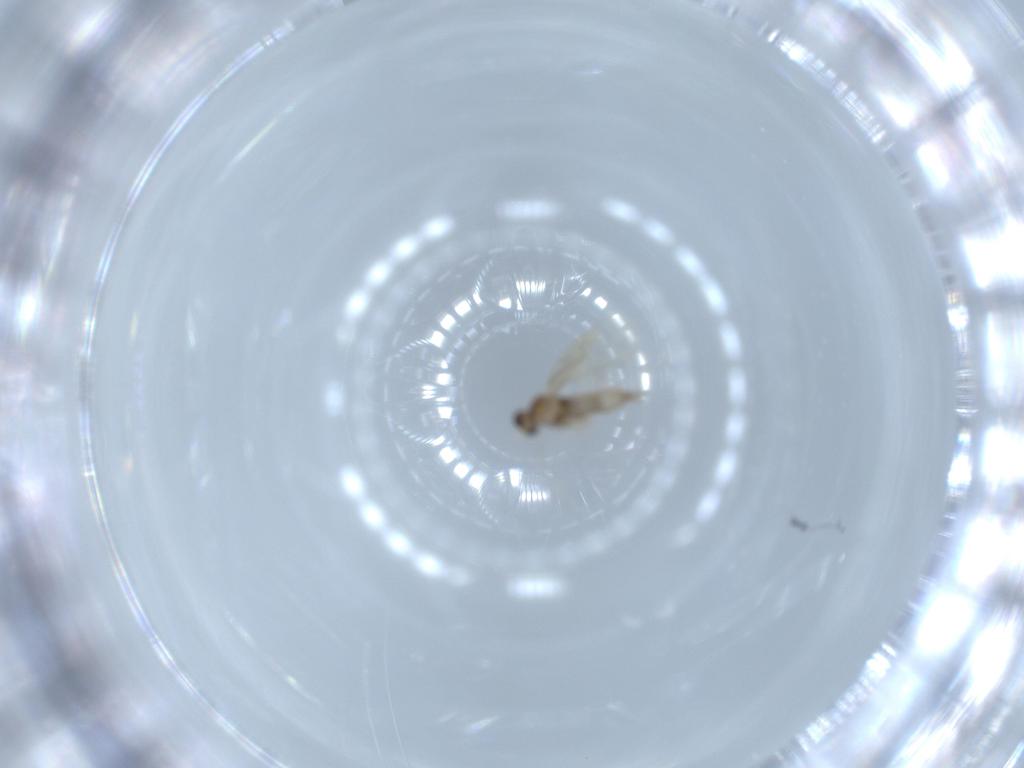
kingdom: Animalia
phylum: Arthropoda
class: Insecta
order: Diptera
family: Cecidomyiidae
